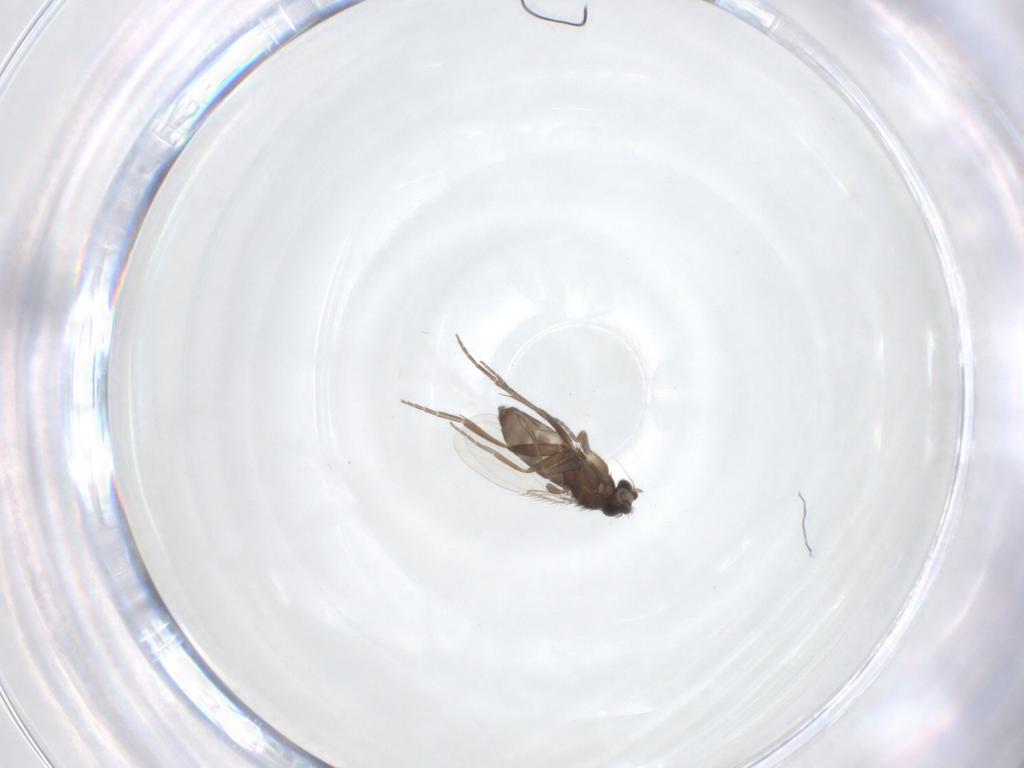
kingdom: Animalia
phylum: Arthropoda
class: Insecta
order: Diptera
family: Phoridae
